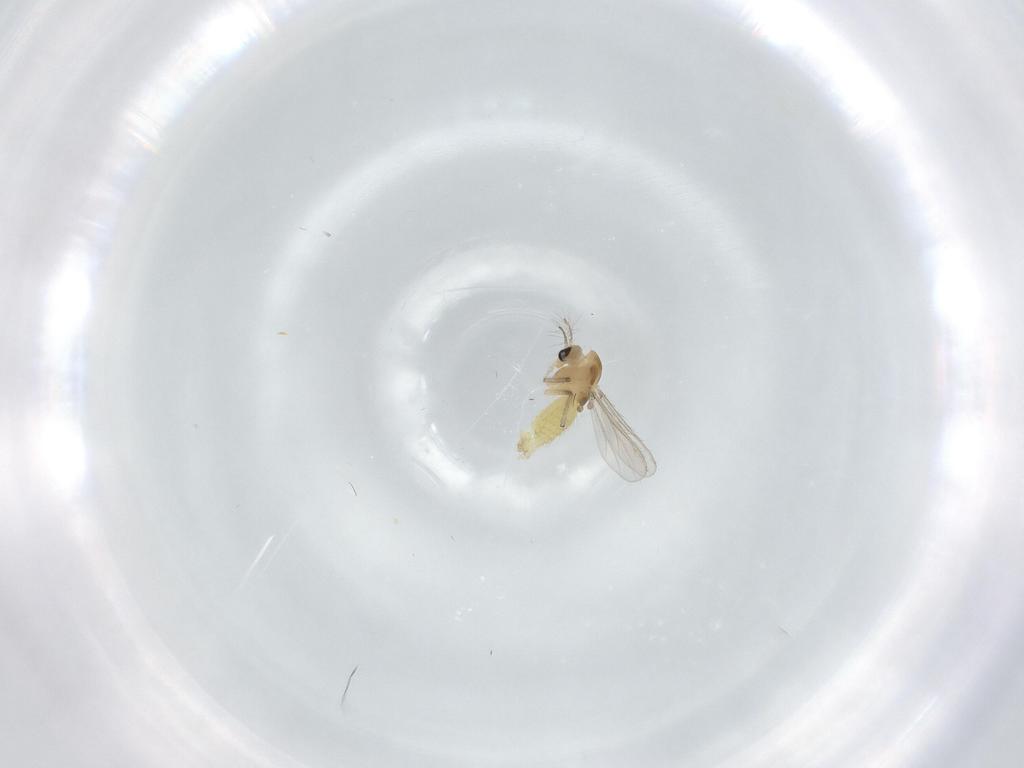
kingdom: Animalia
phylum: Arthropoda
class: Insecta
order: Diptera
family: Chironomidae
